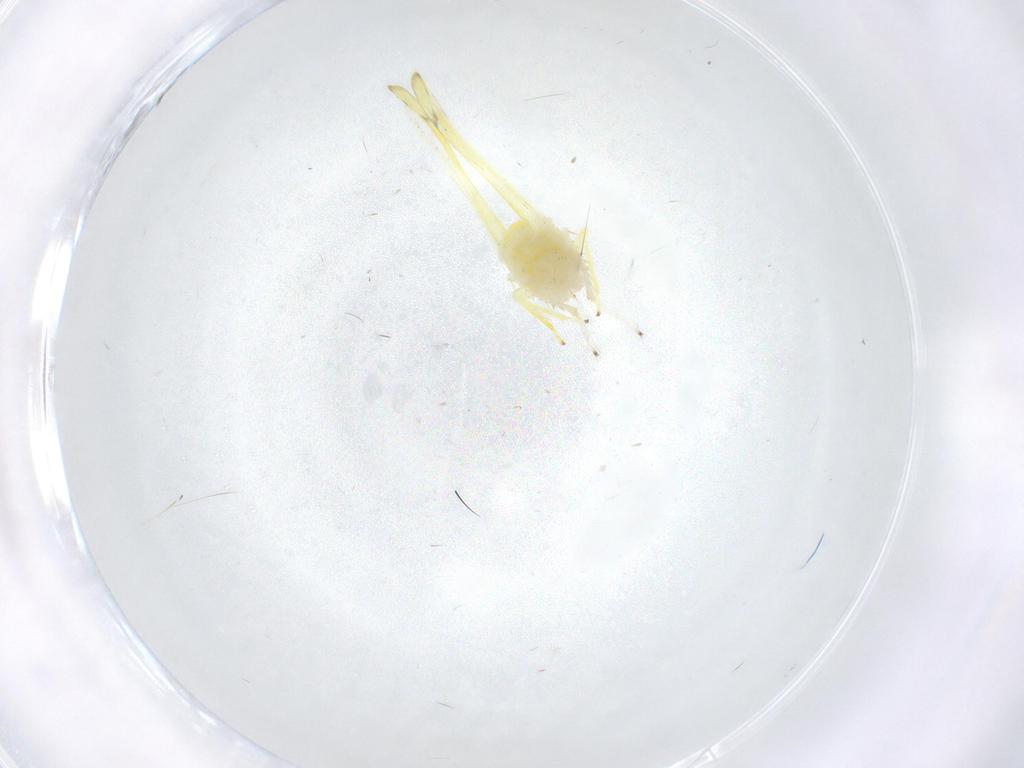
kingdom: Animalia
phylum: Arthropoda
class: Insecta
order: Hemiptera
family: Cicadellidae
